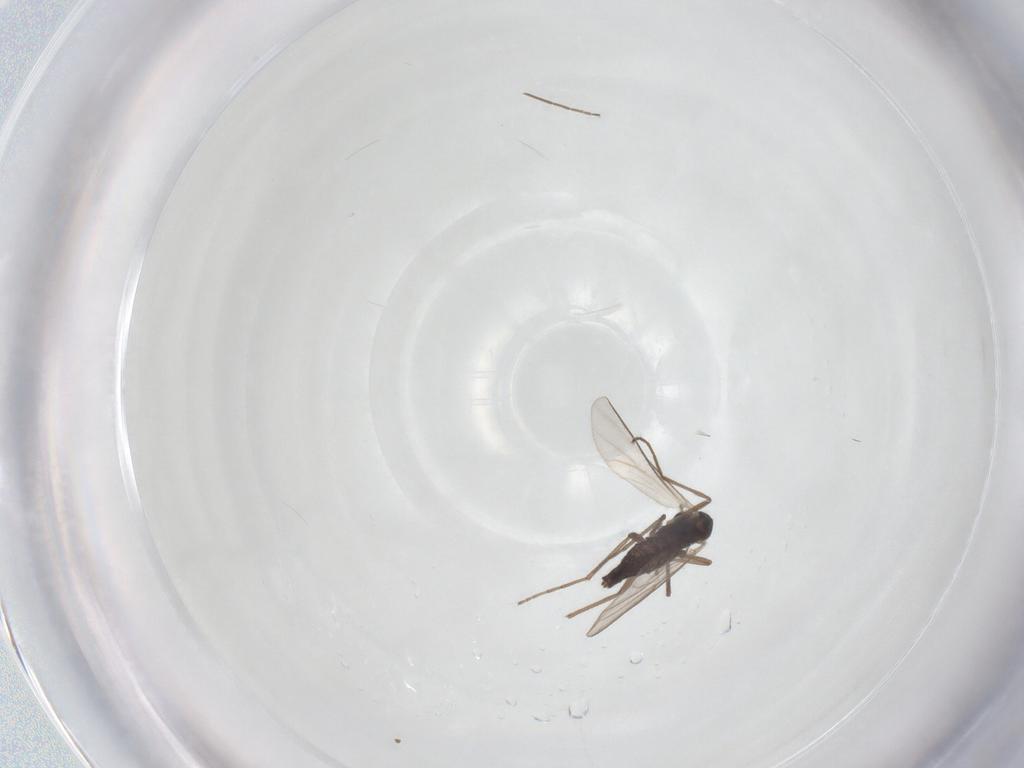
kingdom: Animalia
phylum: Arthropoda
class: Insecta
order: Diptera
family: Chironomidae
